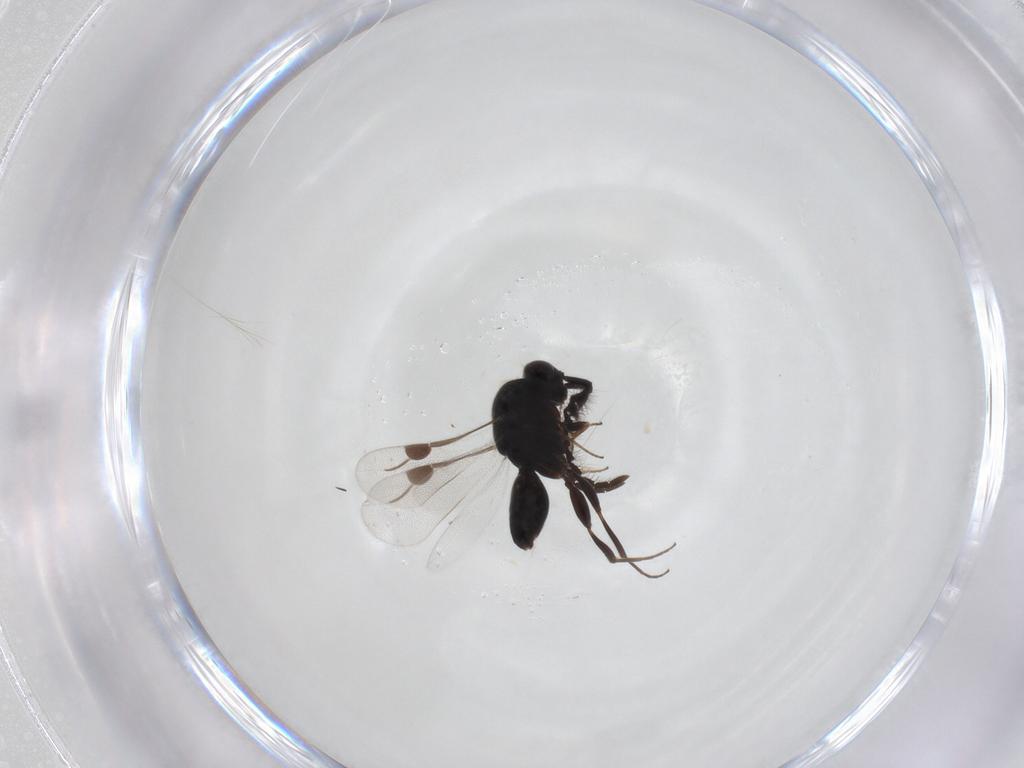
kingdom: Animalia
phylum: Arthropoda
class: Insecta
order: Hymenoptera
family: Megaspilidae
